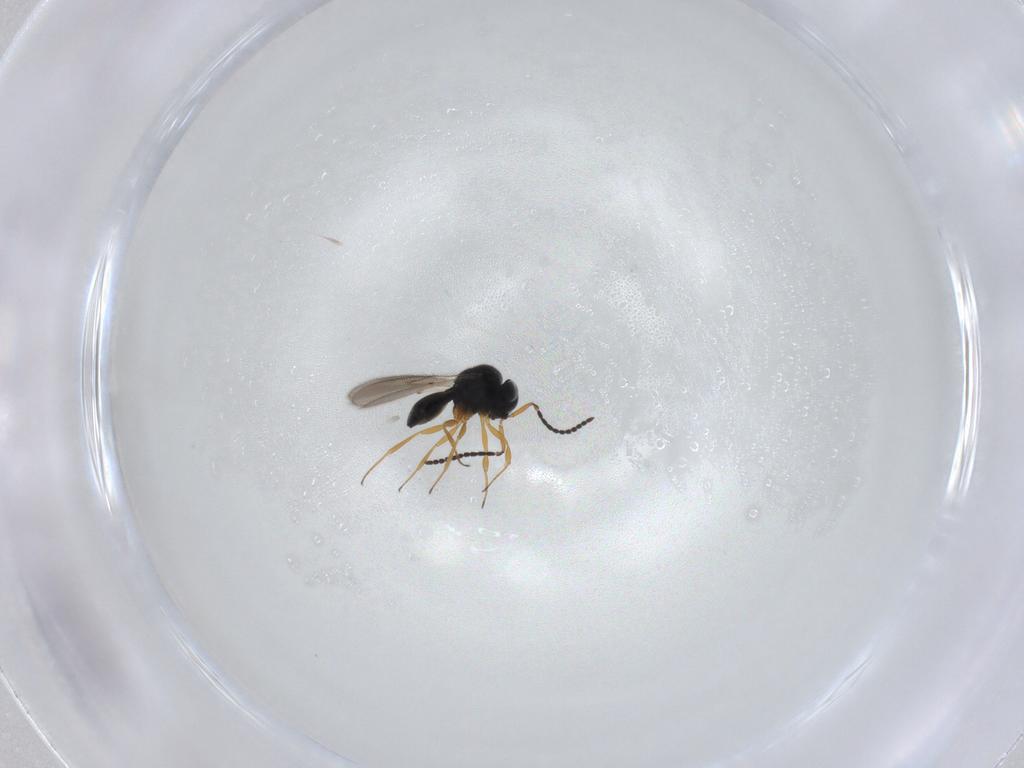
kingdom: Animalia
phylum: Arthropoda
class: Insecta
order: Hymenoptera
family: Scelionidae
